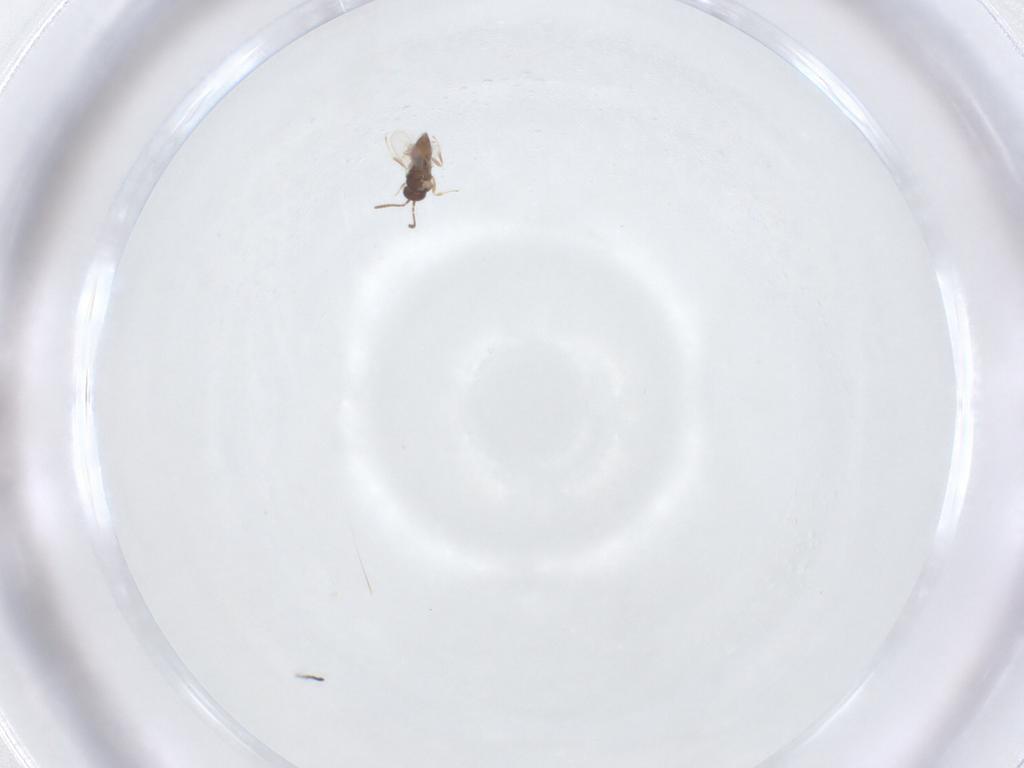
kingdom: Animalia
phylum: Arthropoda
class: Insecta
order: Hymenoptera
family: Scelionidae
